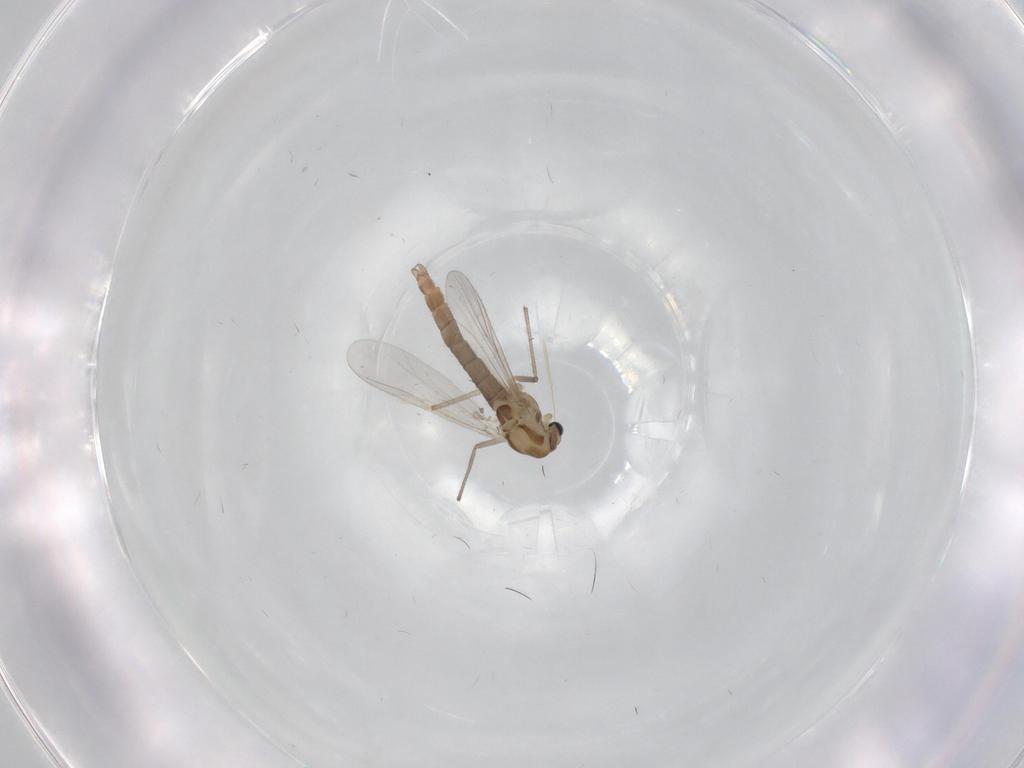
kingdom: Animalia
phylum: Arthropoda
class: Insecta
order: Diptera
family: Chironomidae
